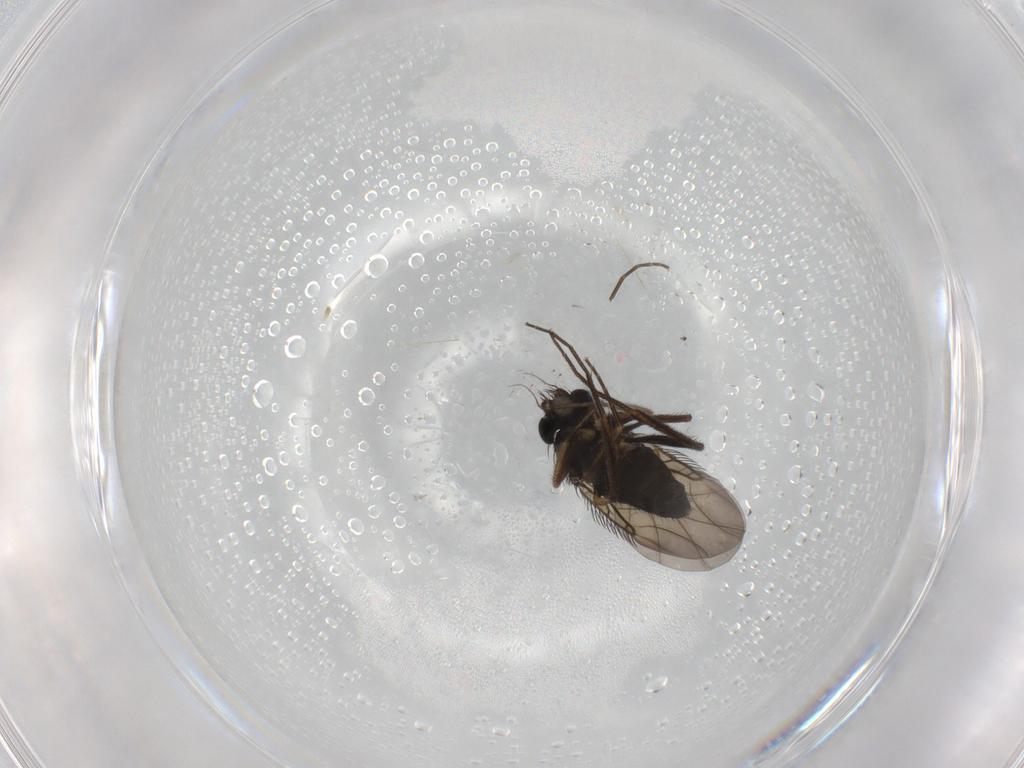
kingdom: Animalia
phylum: Arthropoda
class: Insecta
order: Diptera
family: Phoridae
